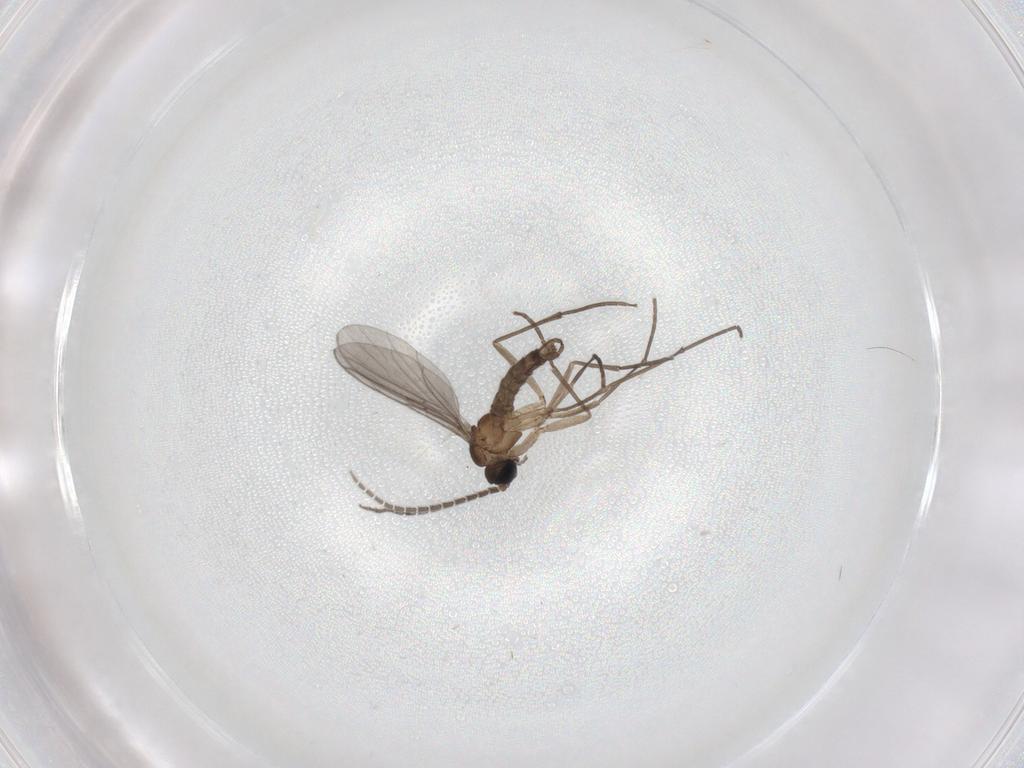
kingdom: Animalia
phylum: Arthropoda
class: Insecta
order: Diptera
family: Sciaridae
